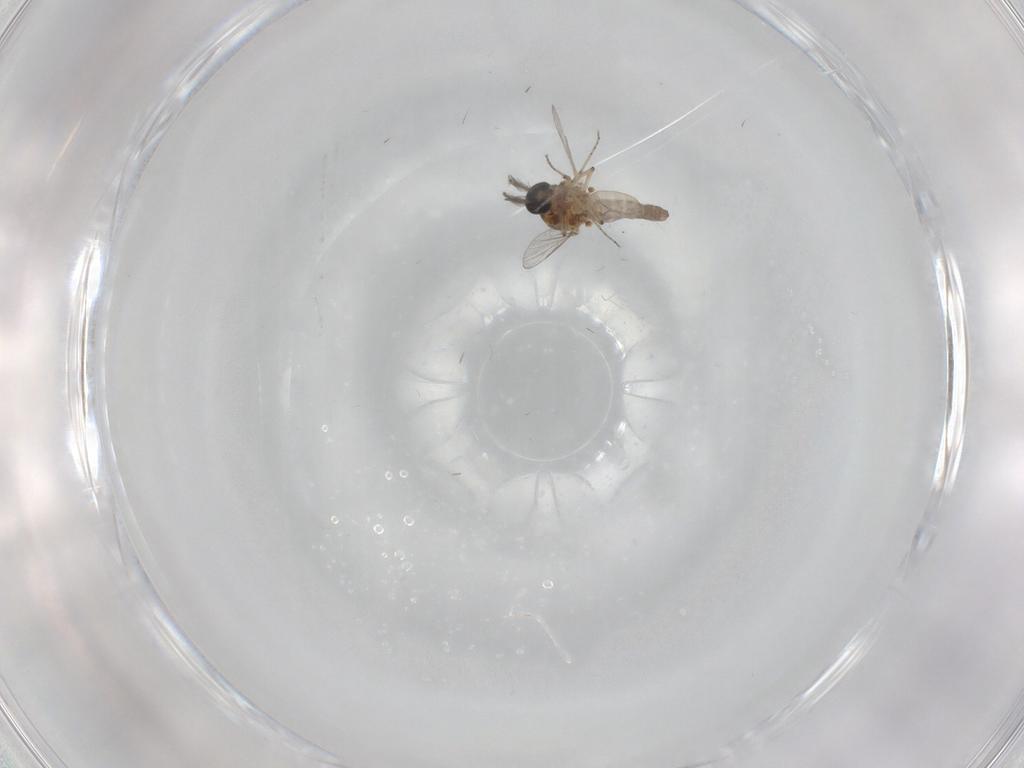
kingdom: Animalia
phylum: Arthropoda
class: Insecta
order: Diptera
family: Ceratopogonidae
